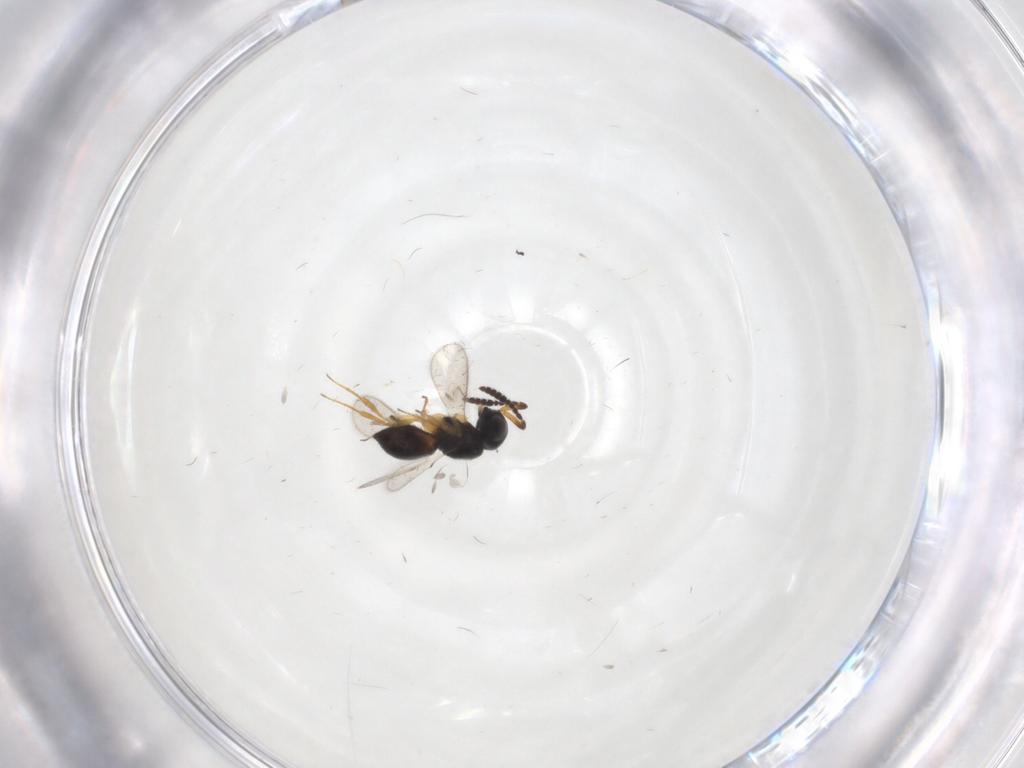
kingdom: Animalia
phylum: Arthropoda
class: Insecta
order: Hymenoptera
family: Scelionidae
